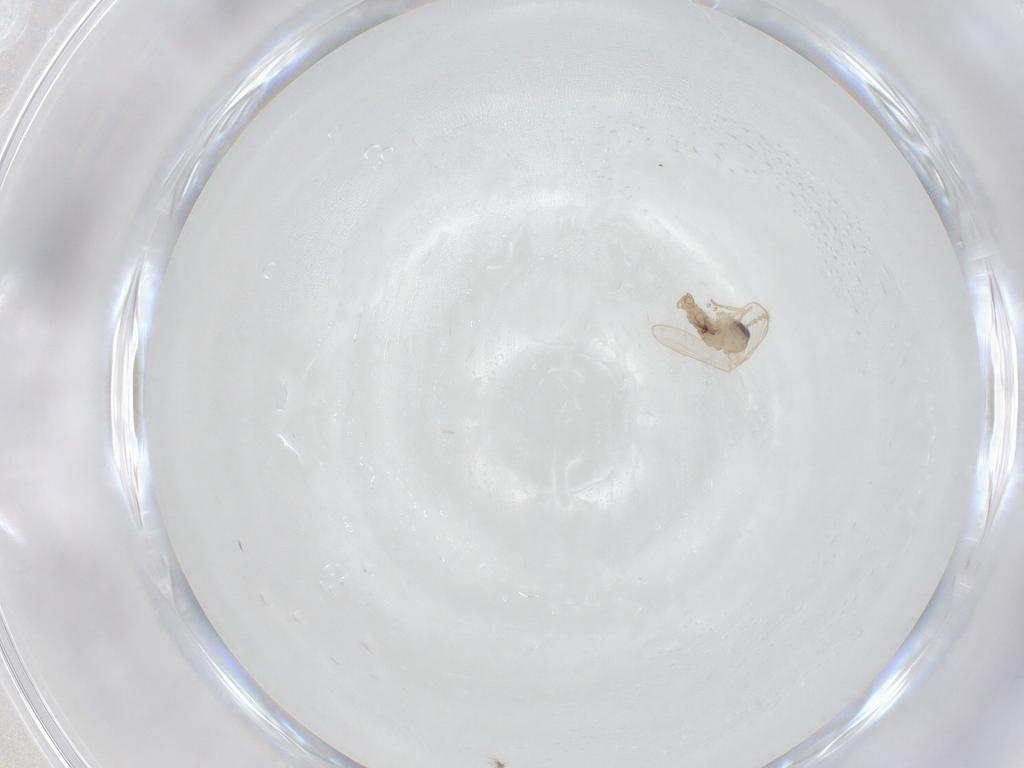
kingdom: Animalia
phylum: Arthropoda
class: Insecta
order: Diptera
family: Psychodidae
